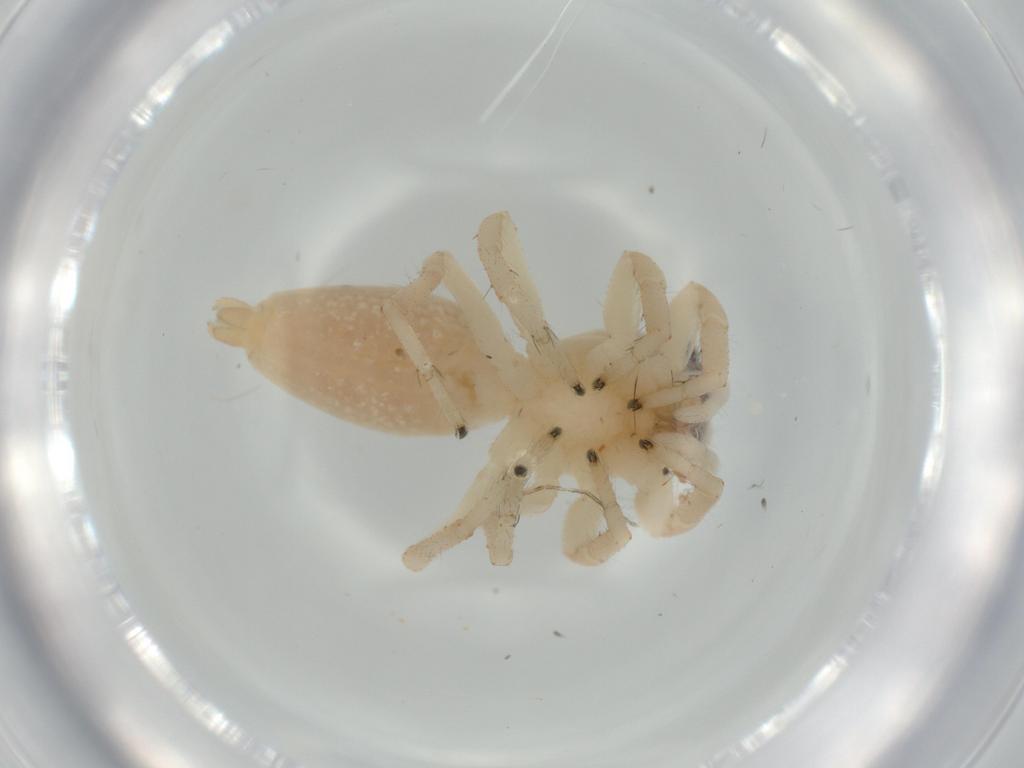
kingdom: Animalia
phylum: Arthropoda
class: Arachnida
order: Araneae
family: Salticidae
